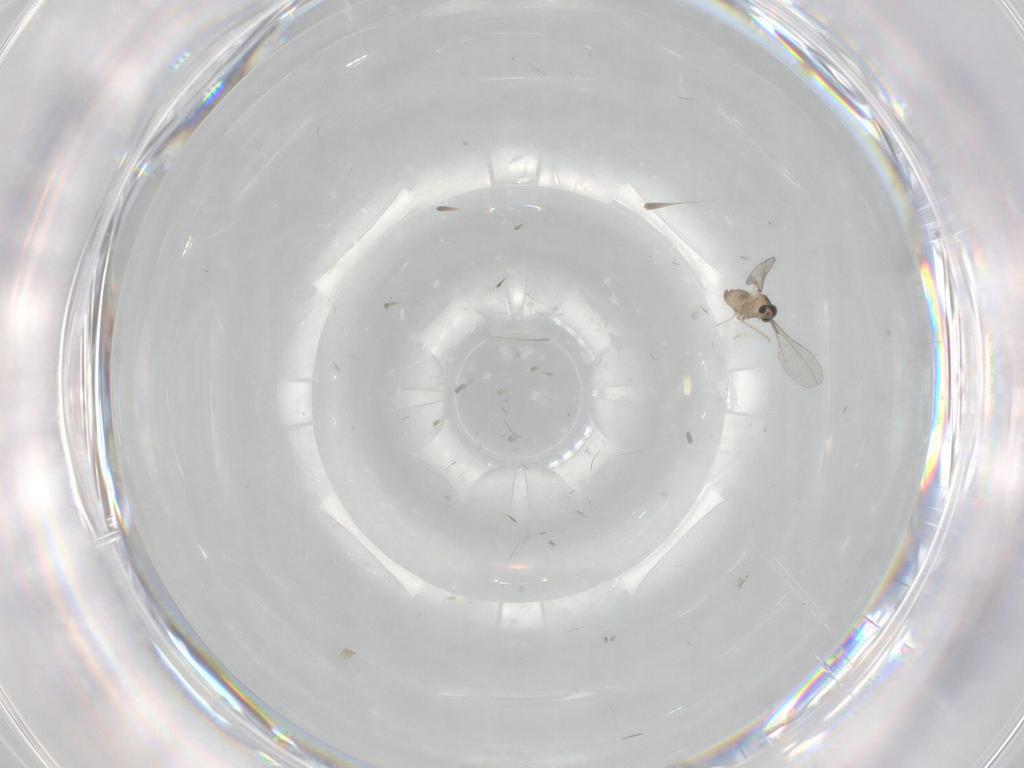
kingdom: Animalia
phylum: Arthropoda
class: Insecta
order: Diptera
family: Cecidomyiidae
